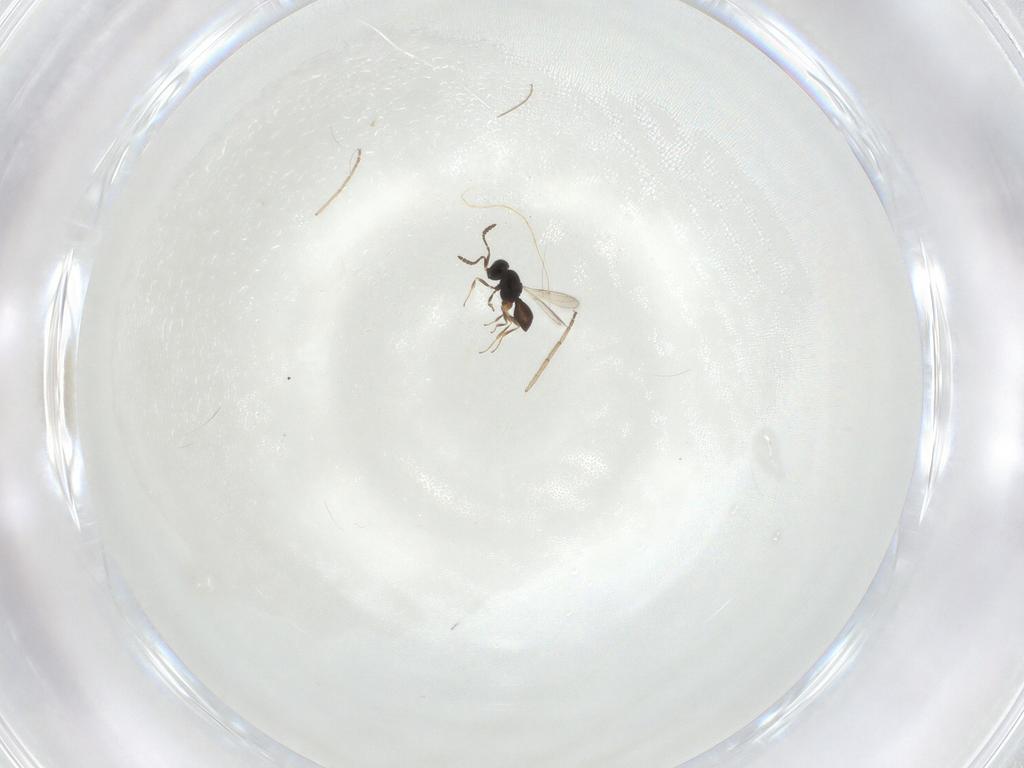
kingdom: Animalia
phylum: Arthropoda
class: Insecta
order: Hymenoptera
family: Scelionidae
